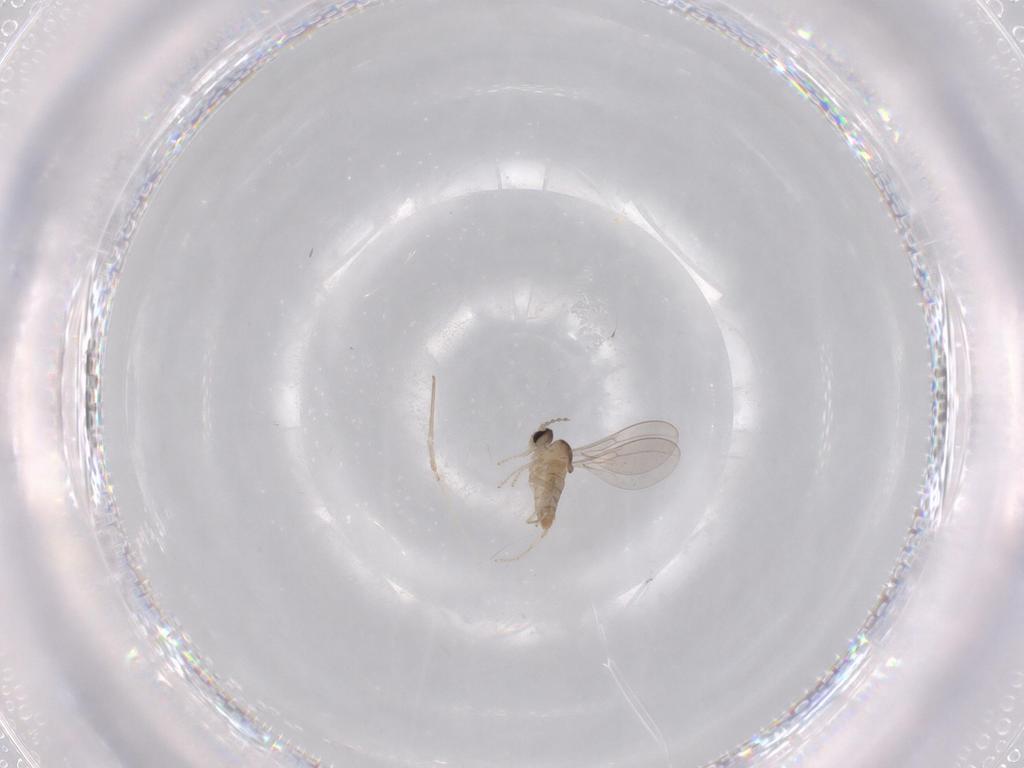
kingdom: Animalia
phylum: Arthropoda
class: Insecta
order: Diptera
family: Cecidomyiidae
